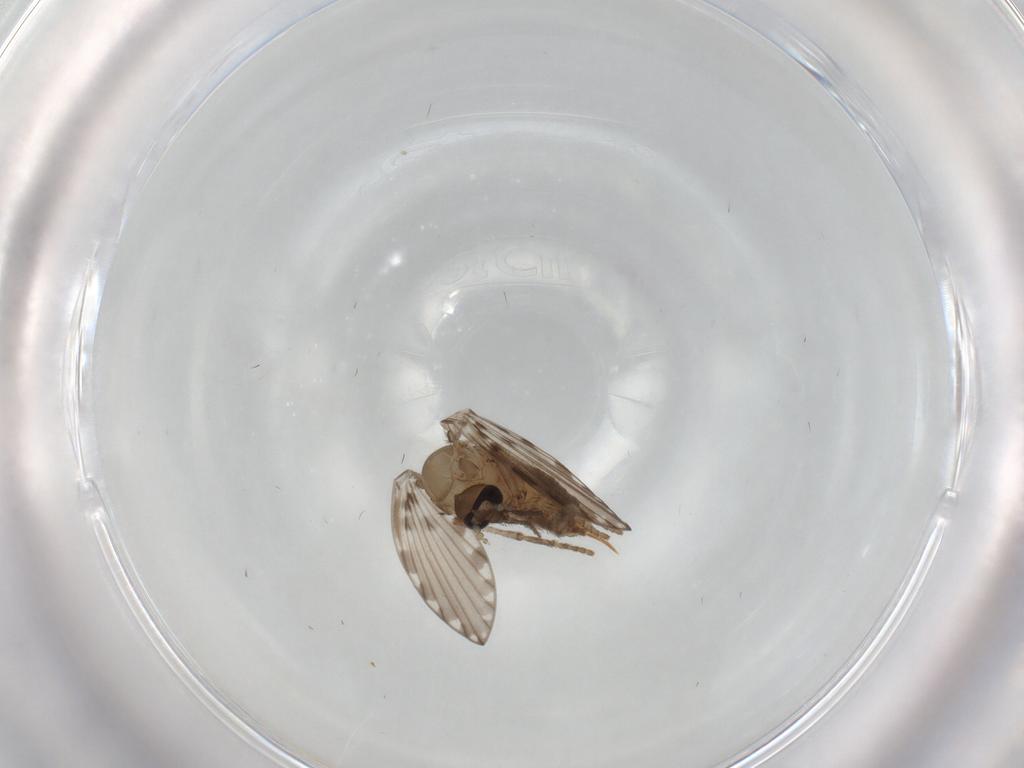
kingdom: Animalia
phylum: Arthropoda
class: Insecta
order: Diptera
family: Psychodidae
